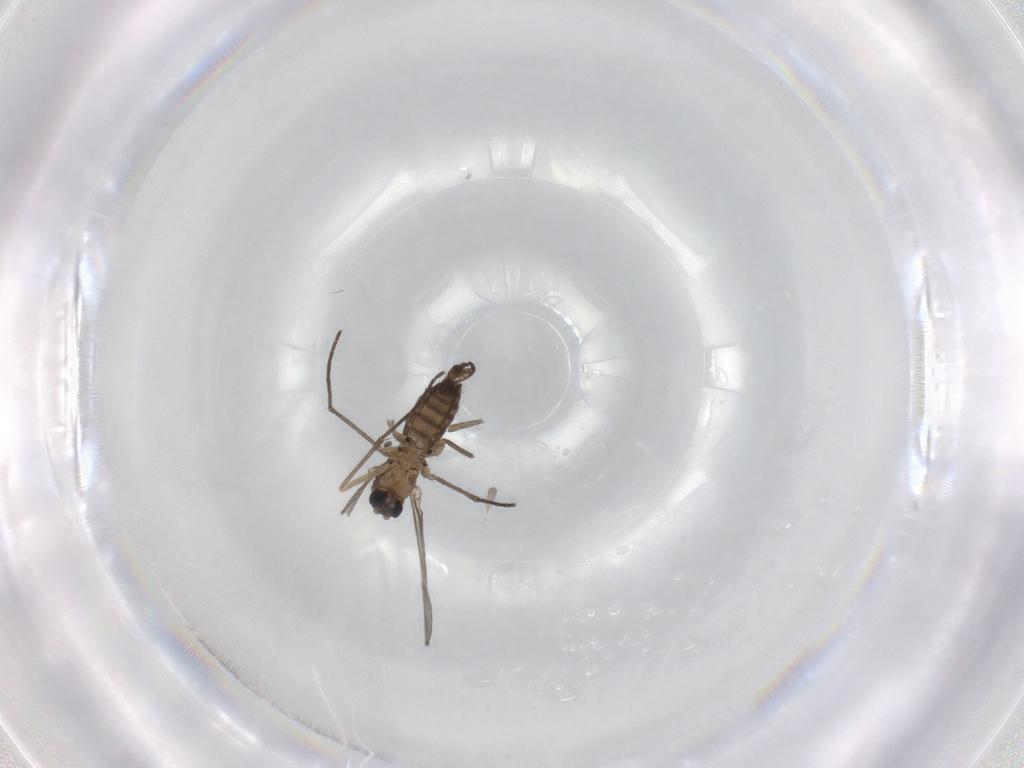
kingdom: Animalia
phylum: Arthropoda
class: Insecta
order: Diptera
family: Sciaridae
